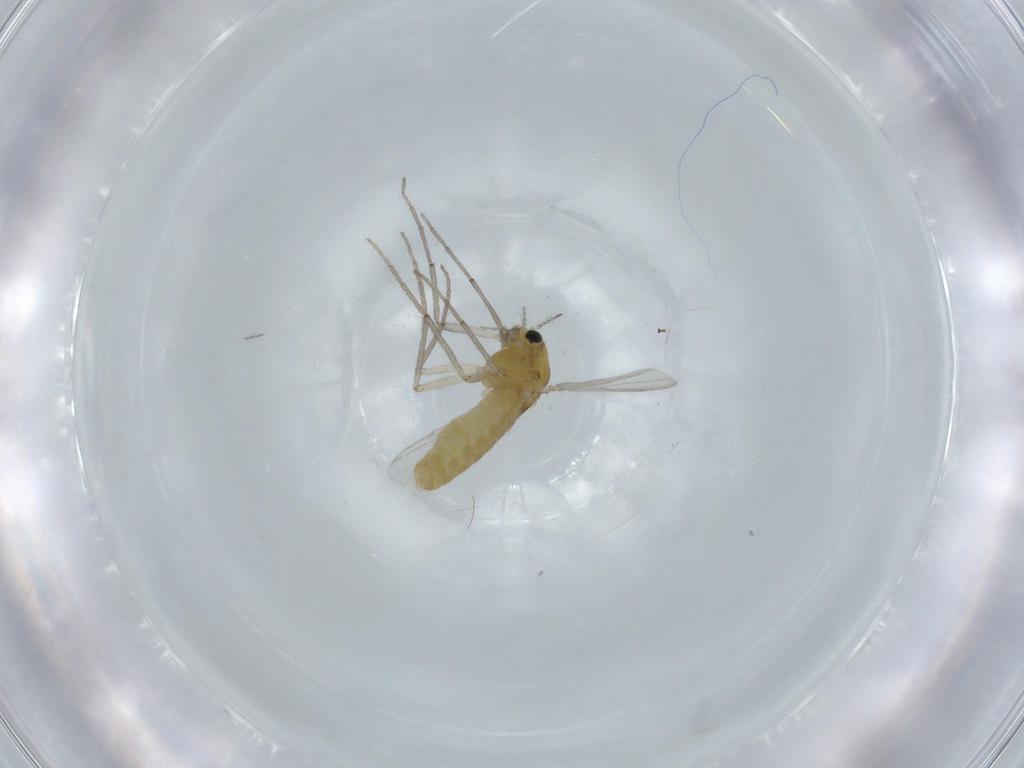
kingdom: Animalia
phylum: Arthropoda
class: Insecta
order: Diptera
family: Chironomidae
